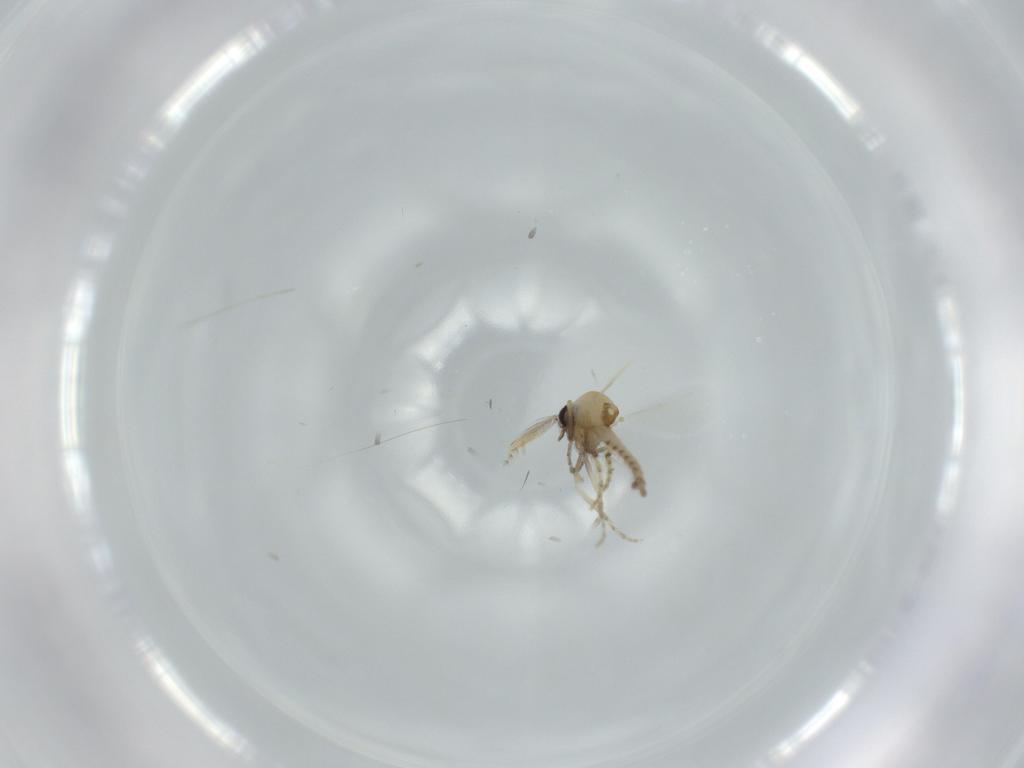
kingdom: Animalia
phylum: Arthropoda
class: Insecta
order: Diptera
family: Ceratopogonidae
